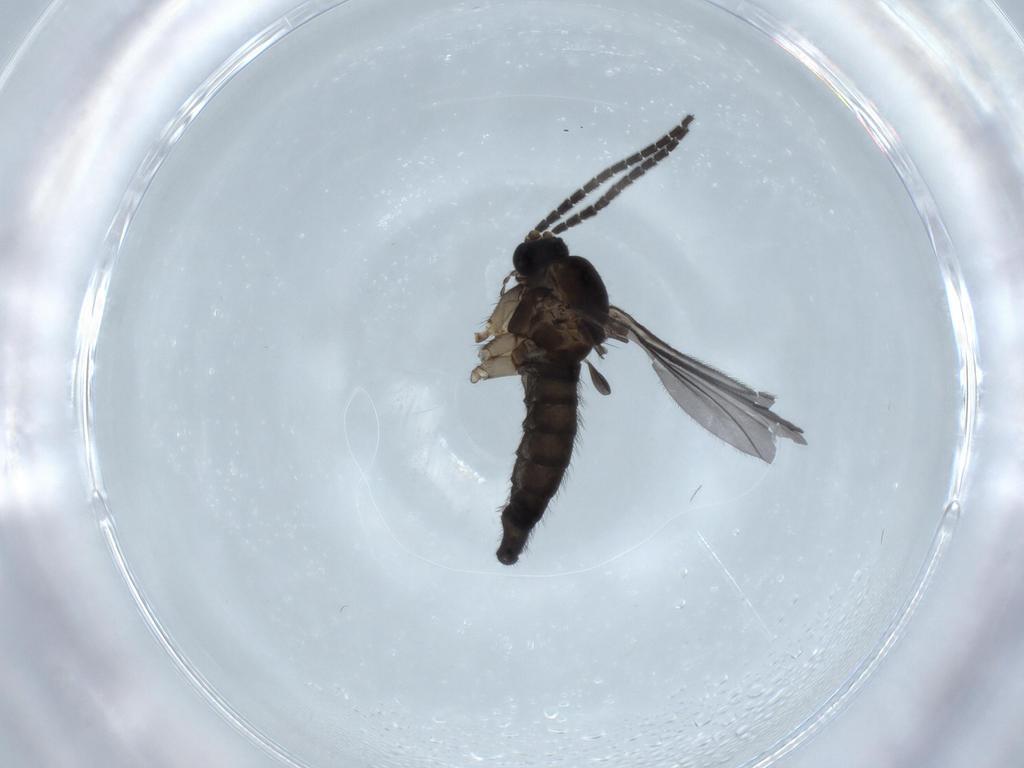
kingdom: Animalia
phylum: Arthropoda
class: Insecta
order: Diptera
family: Sciaridae
